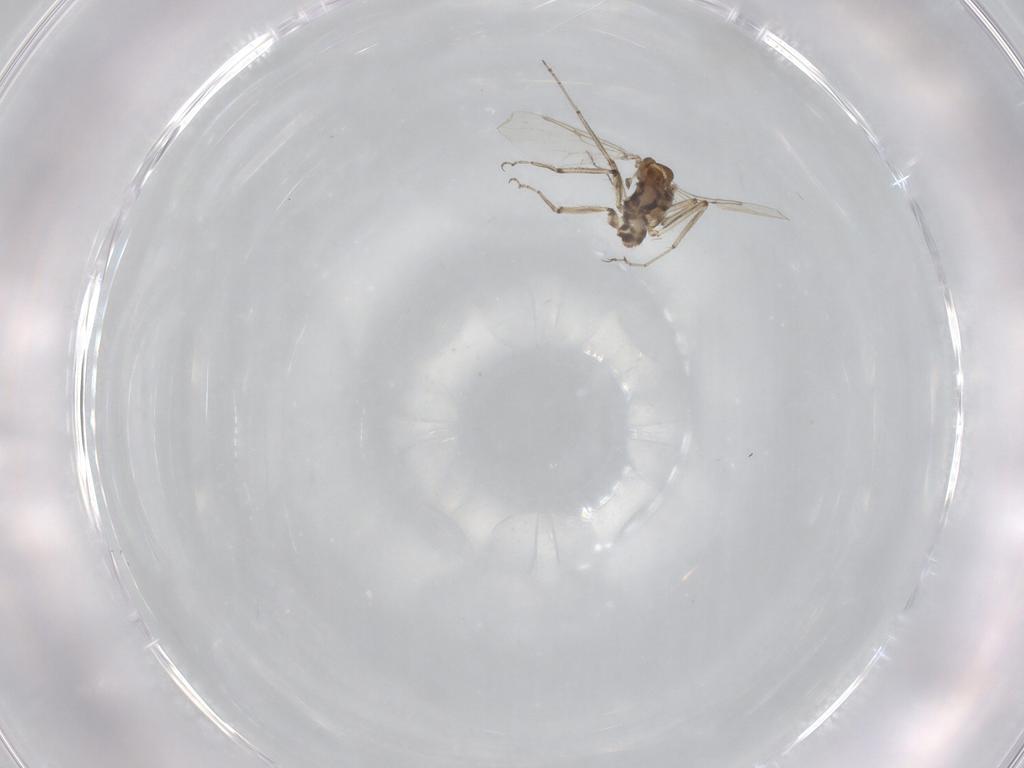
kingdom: Animalia
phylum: Arthropoda
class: Insecta
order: Diptera
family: Ceratopogonidae
